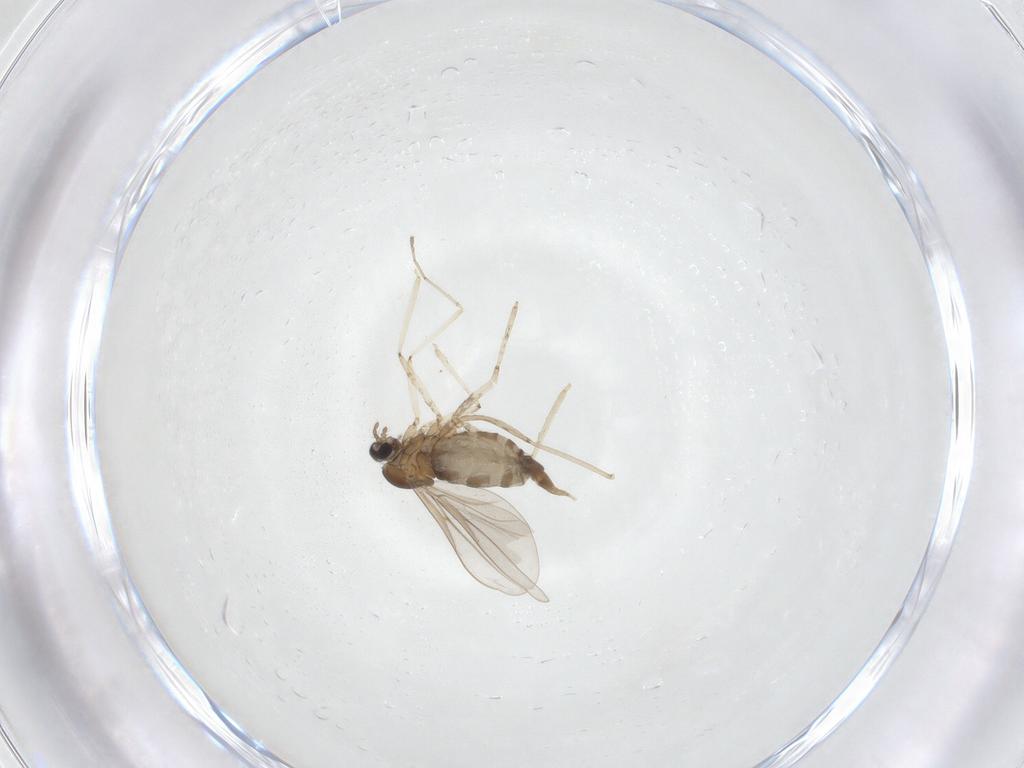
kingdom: Animalia
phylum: Arthropoda
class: Insecta
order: Diptera
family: Cecidomyiidae
